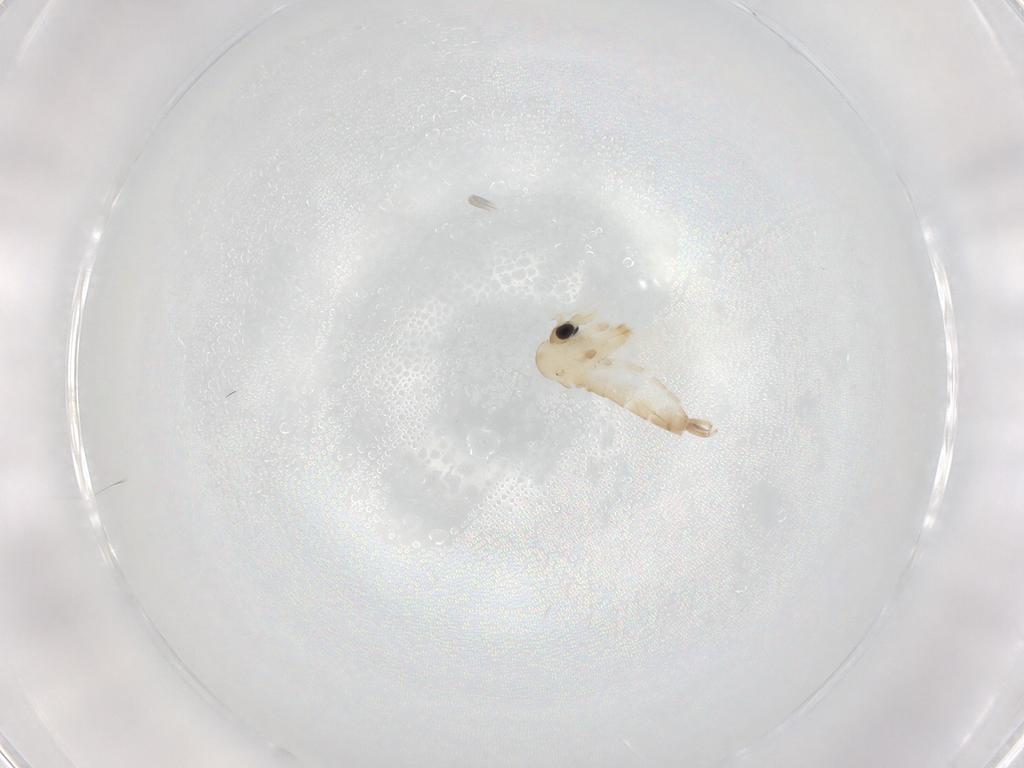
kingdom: Animalia
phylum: Arthropoda
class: Insecta
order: Diptera
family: Psychodidae
